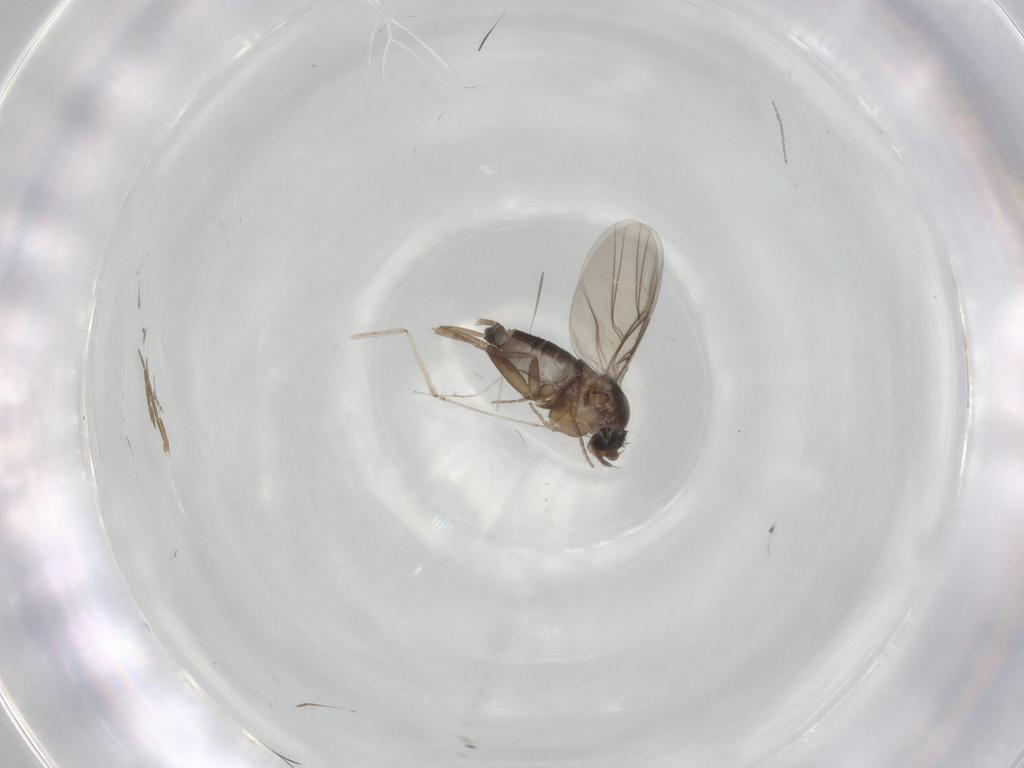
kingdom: Animalia
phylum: Arthropoda
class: Insecta
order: Diptera
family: Phoridae
